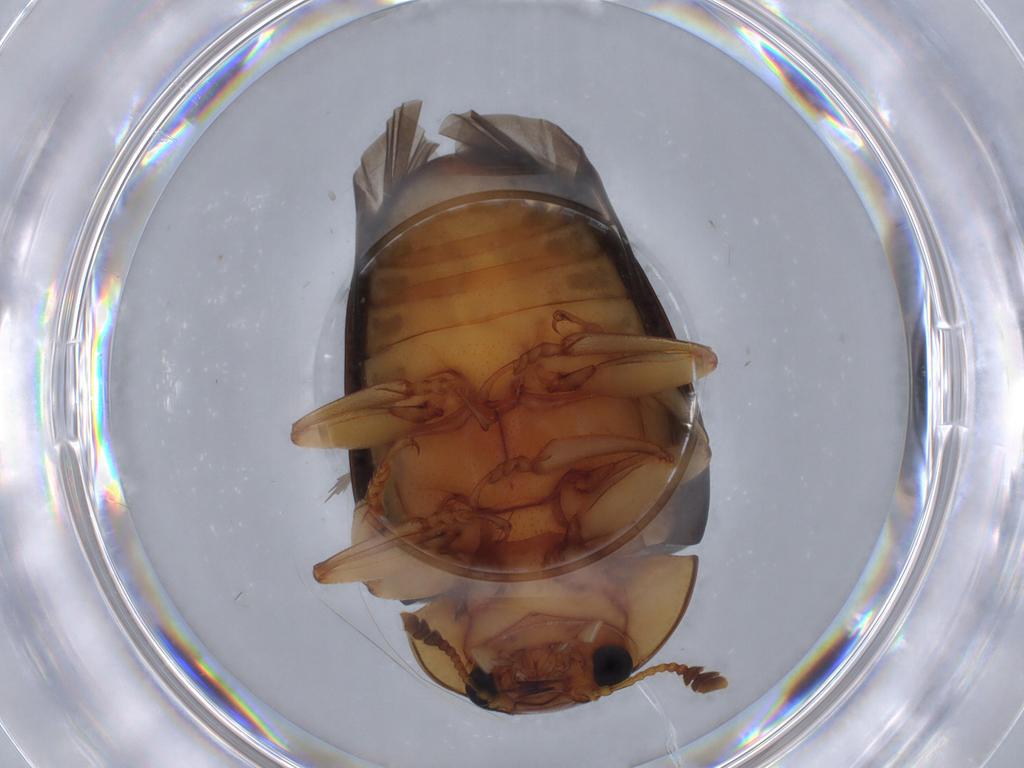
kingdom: Animalia
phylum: Arthropoda
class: Insecta
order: Coleoptera
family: Erotylidae
